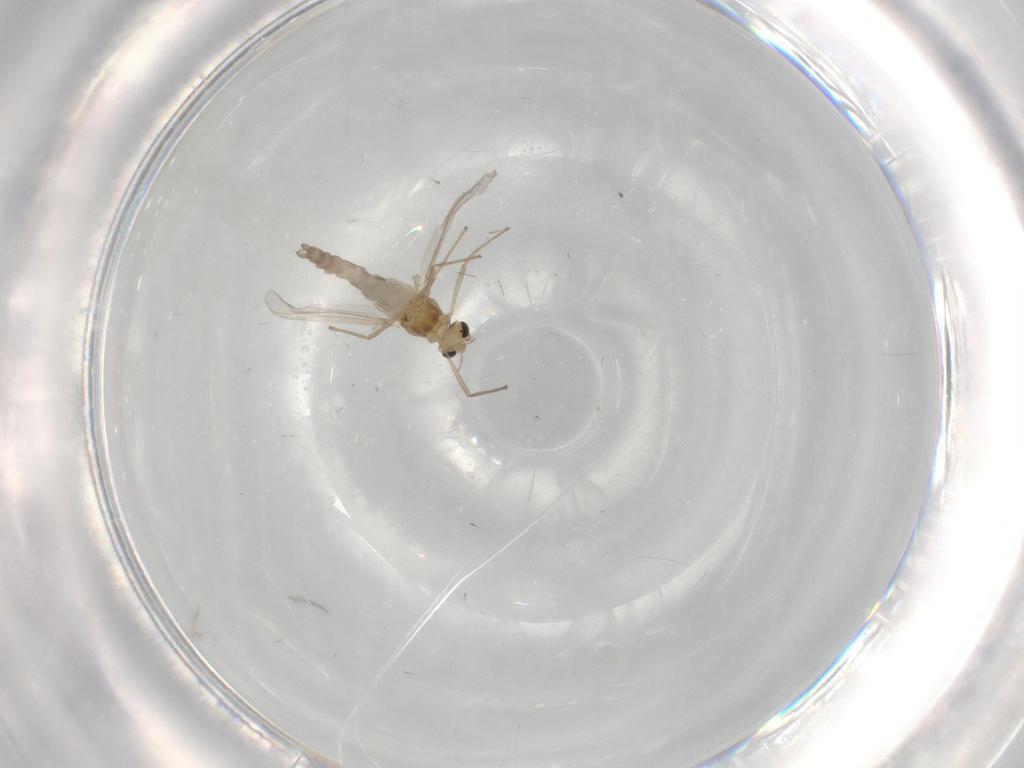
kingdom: Animalia
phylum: Arthropoda
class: Insecta
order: Diptera
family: Chironomidae
